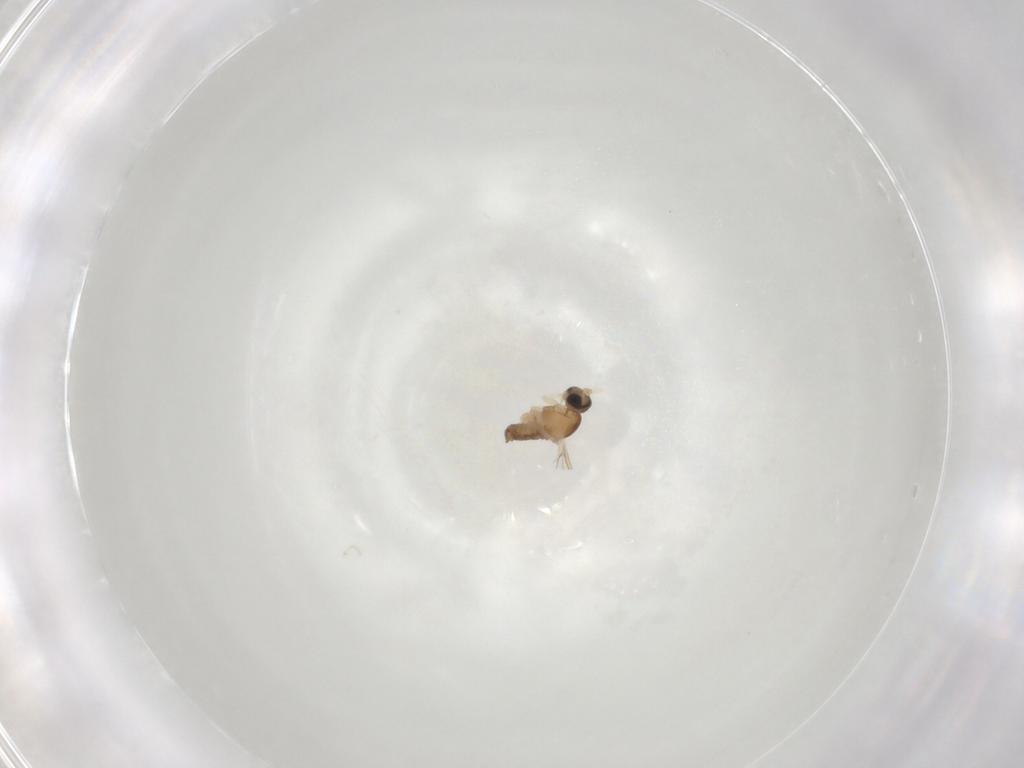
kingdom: Animalia
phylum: Arthropoda
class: Insecta
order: Diptera
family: Cecidomyiidae
